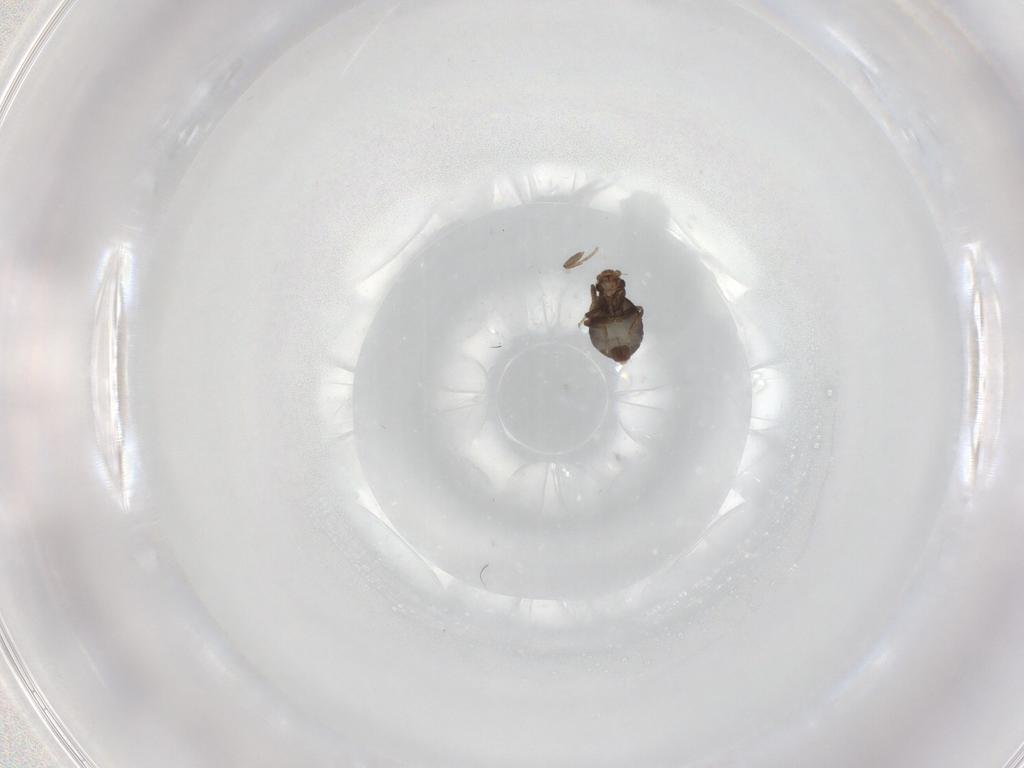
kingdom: Animalia
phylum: Arthropoda
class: Insecta
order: Diptera
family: Phoridae
